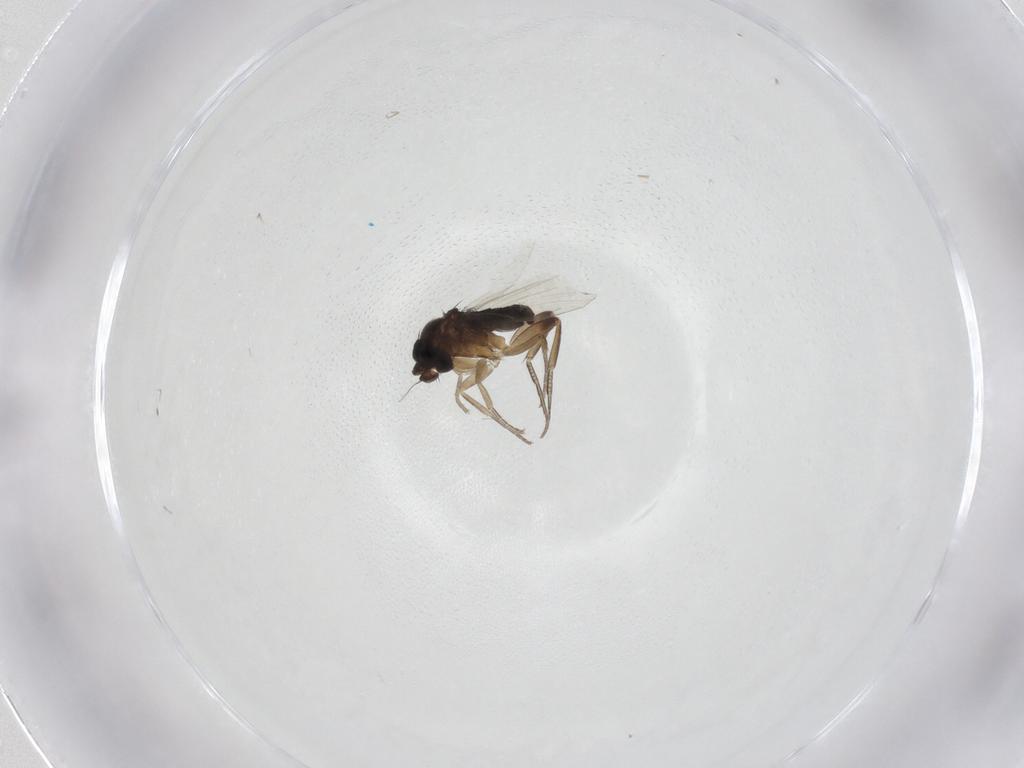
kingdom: Animalia
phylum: Arthropoda
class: Insecta
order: Diptera
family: Phoridae
